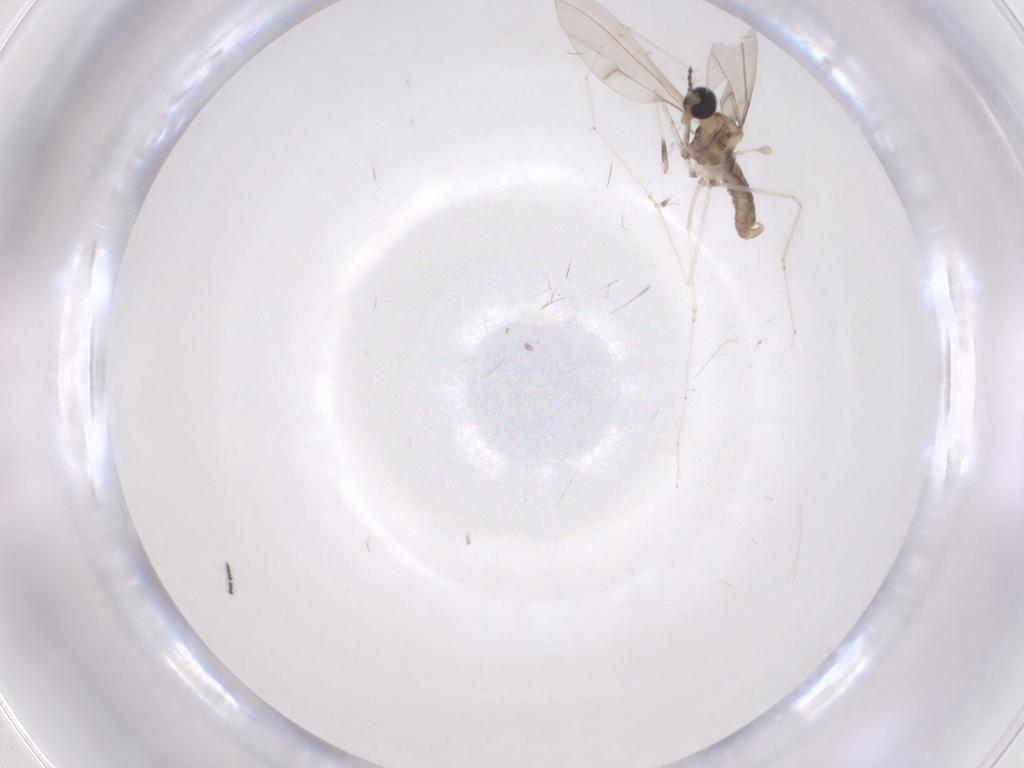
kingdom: Animalia
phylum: Arthropoda
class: Insecta
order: Diptera
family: Cecidomyiidae
